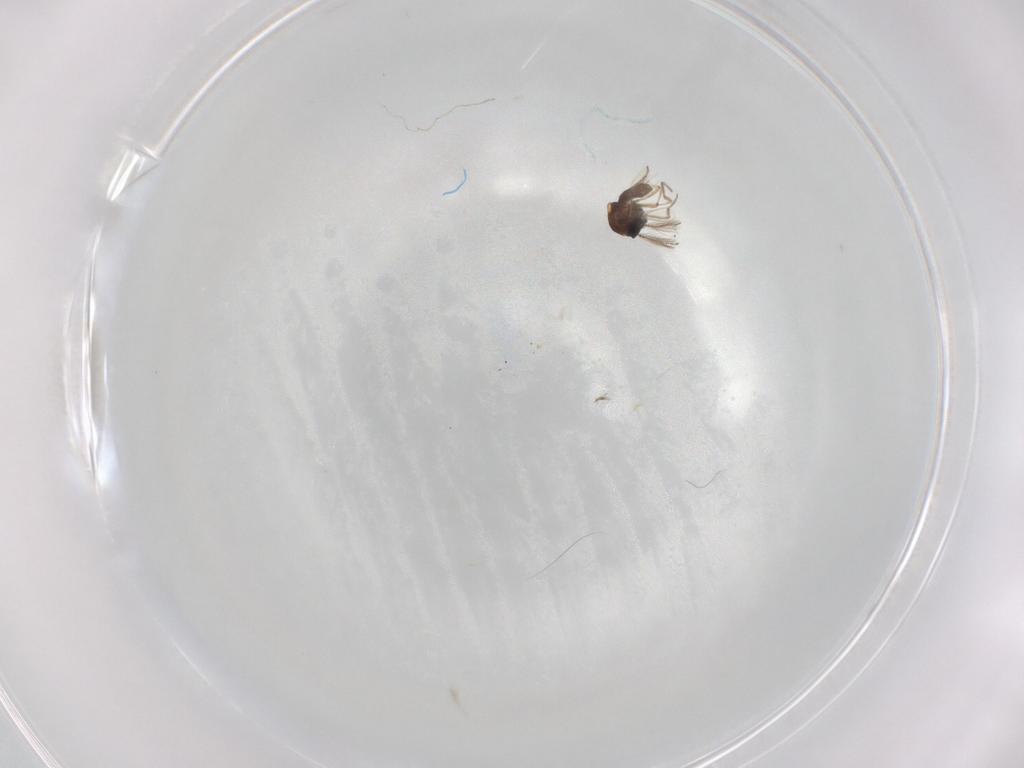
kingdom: Animalia
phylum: Arthropoda
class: Insecta
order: Diptera
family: Ceratopogonidae
